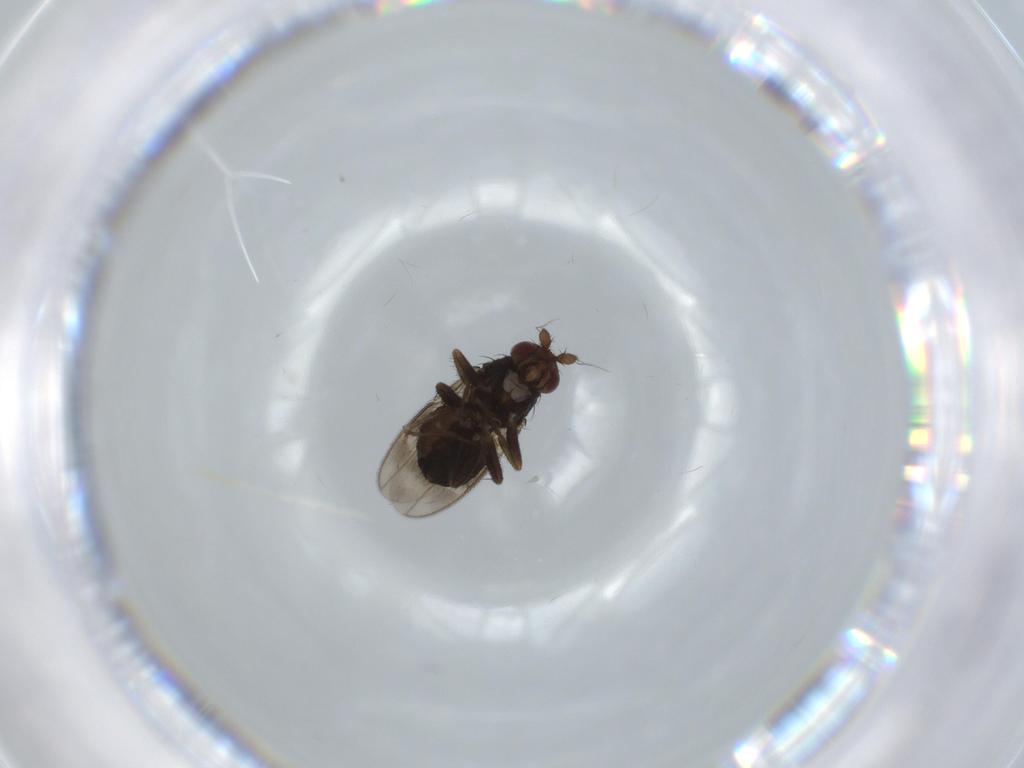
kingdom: Animalia
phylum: Arthropoda
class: Insecta
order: Diptera
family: Sphaeroceridae
